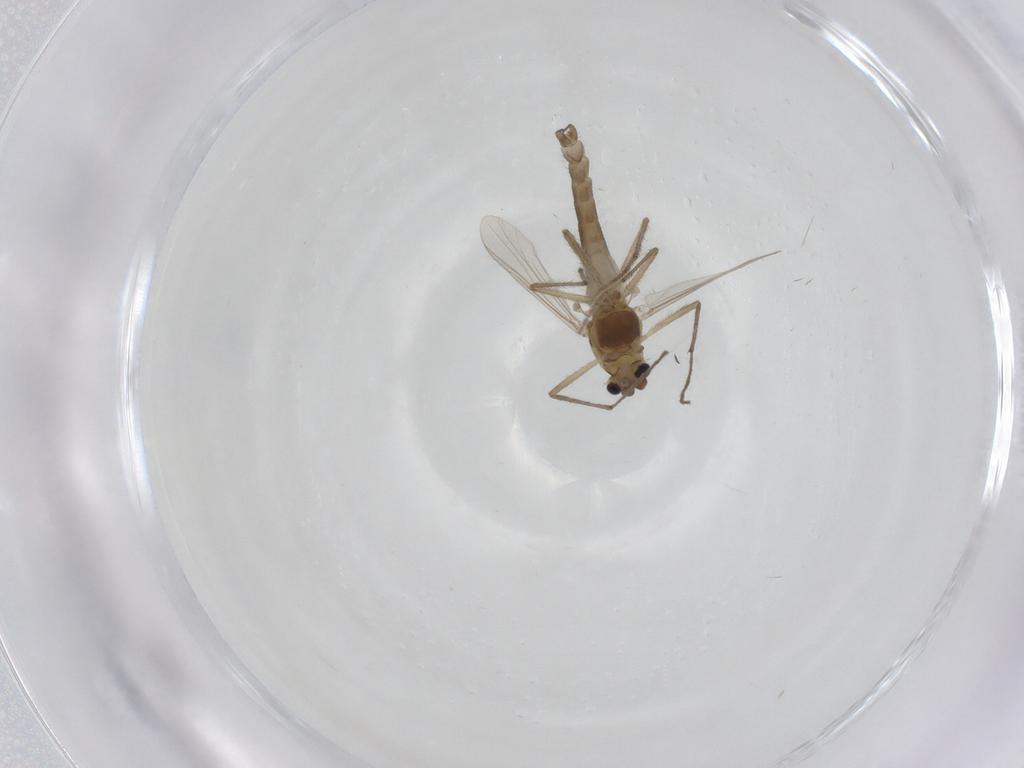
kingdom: Animalia
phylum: Arthropoda
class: Insecta
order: Diptera
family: Chironomidae
